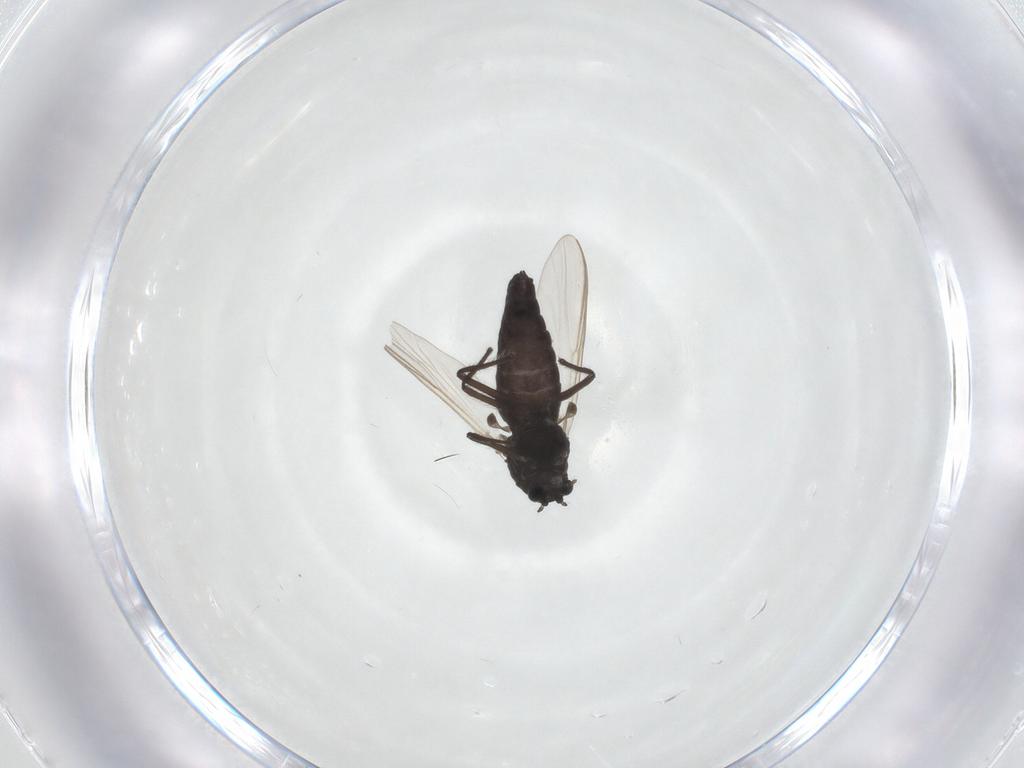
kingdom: Animalia
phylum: Arthropoda
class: Insecta
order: Diptera
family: Chironomidae
